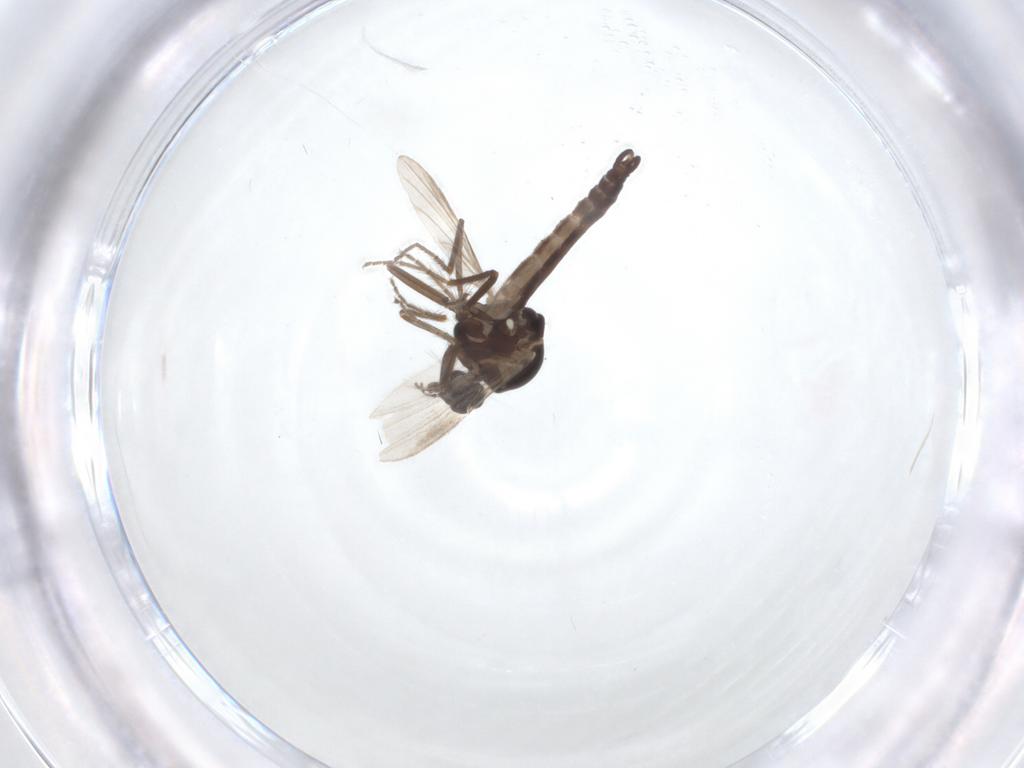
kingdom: Animalia
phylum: Arthropoda
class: Insecta
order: Diptera
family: Ceratopogonidae
